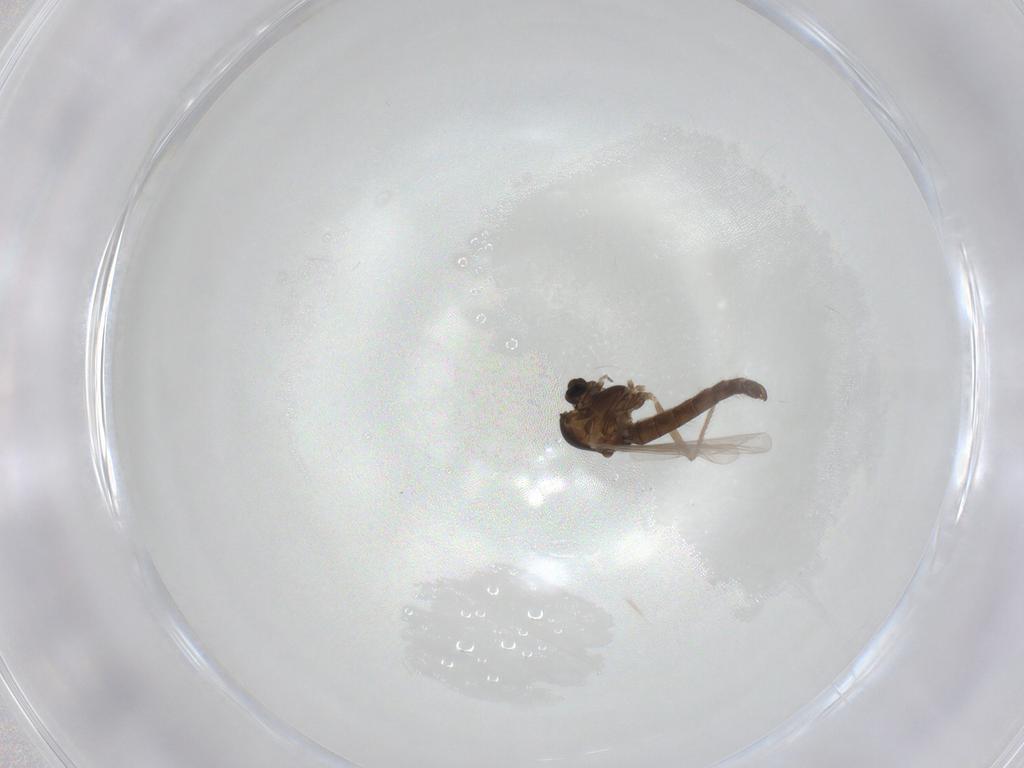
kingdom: Animalia
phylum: Arthropoda
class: Insecta
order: Diptera
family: Chironomidae
